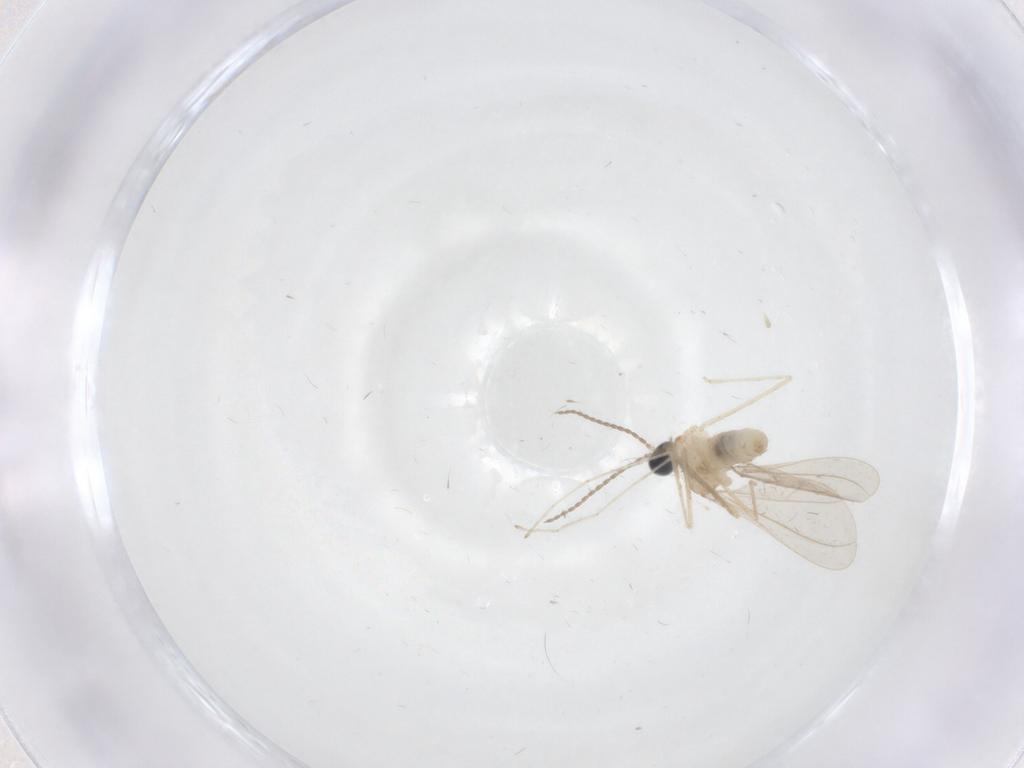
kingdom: Animalia
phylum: Arthropoda
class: Insecta
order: Diptera
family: Cecidomyiidae
